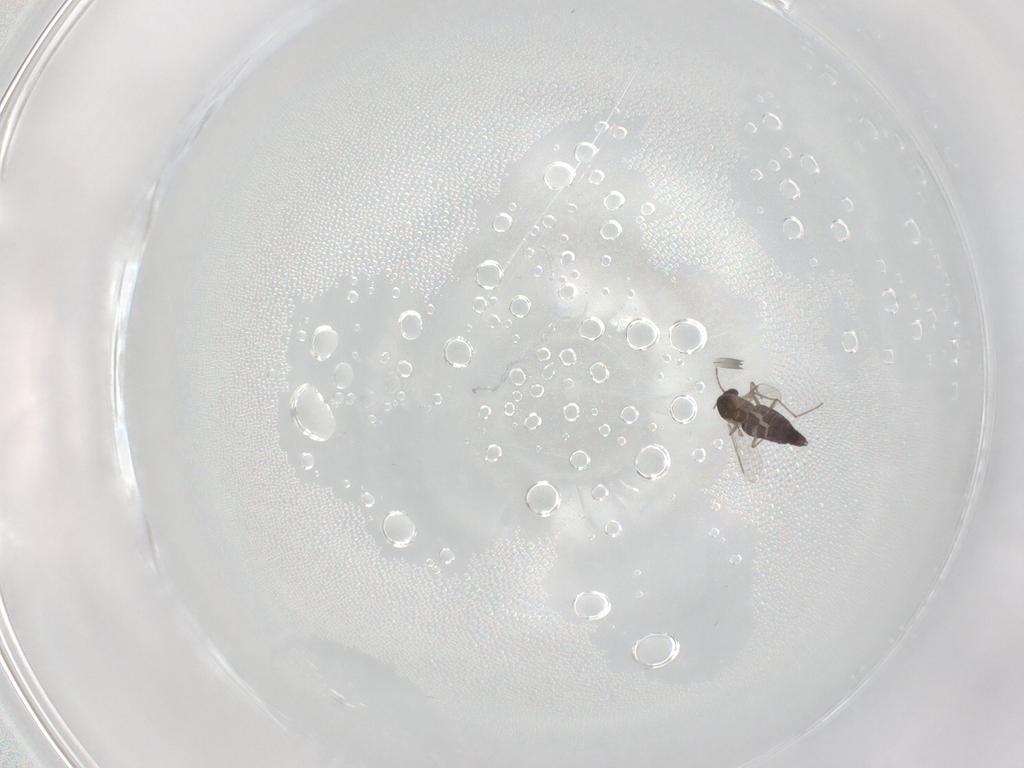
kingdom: Animalia
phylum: Arthropoda
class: Insecta
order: Diptera
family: Chironomidae
